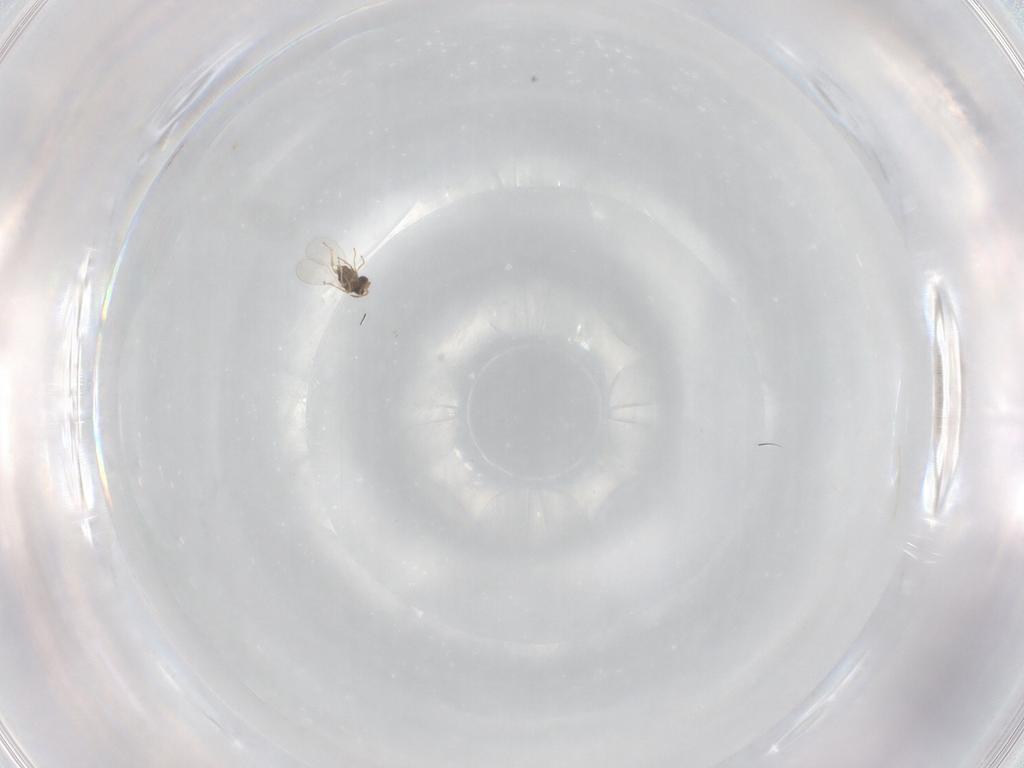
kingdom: Animalia
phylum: Arthropoda
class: Insecta
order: Hymenoptera
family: Encyrtidae
